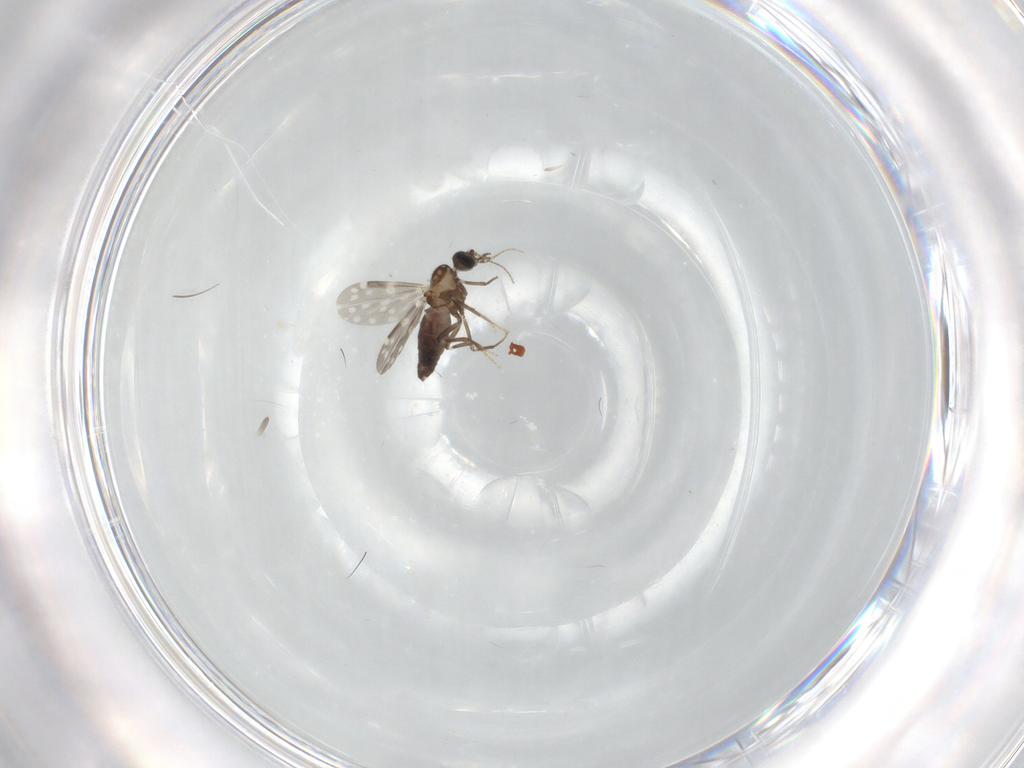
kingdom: Animalia
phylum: Arthropoda
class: Insecta
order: Diptera
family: Ceratopogonidae
